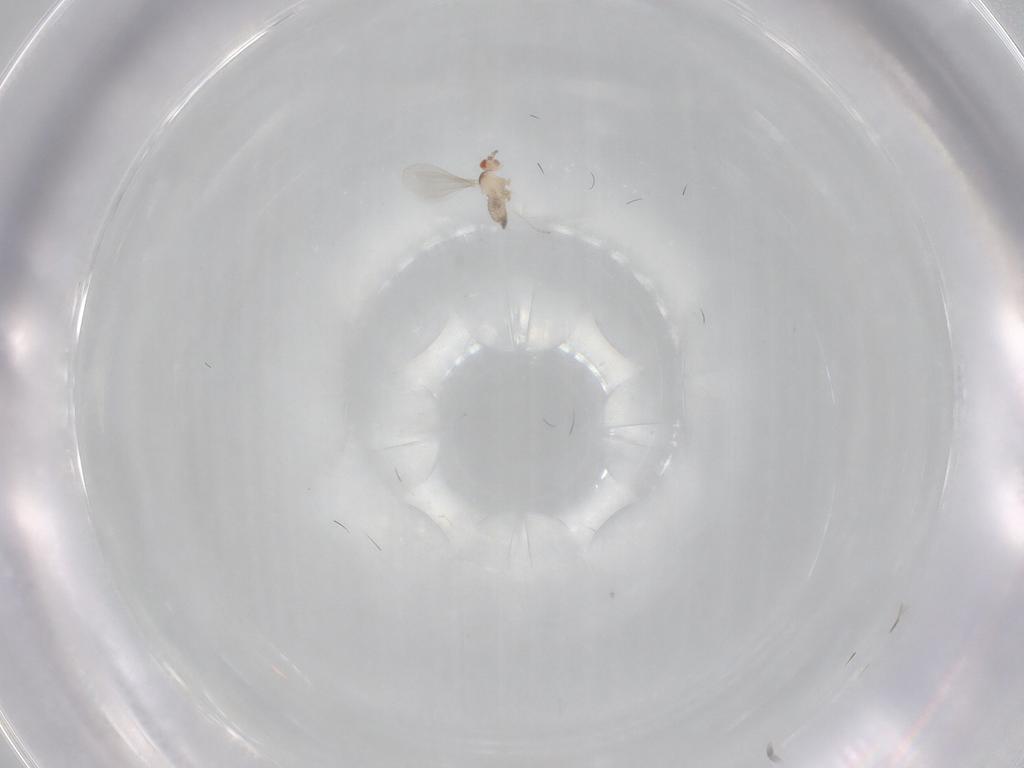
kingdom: Animalia
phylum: Arthropoda
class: Insecta
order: Diptera
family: Cecidomyiidae
